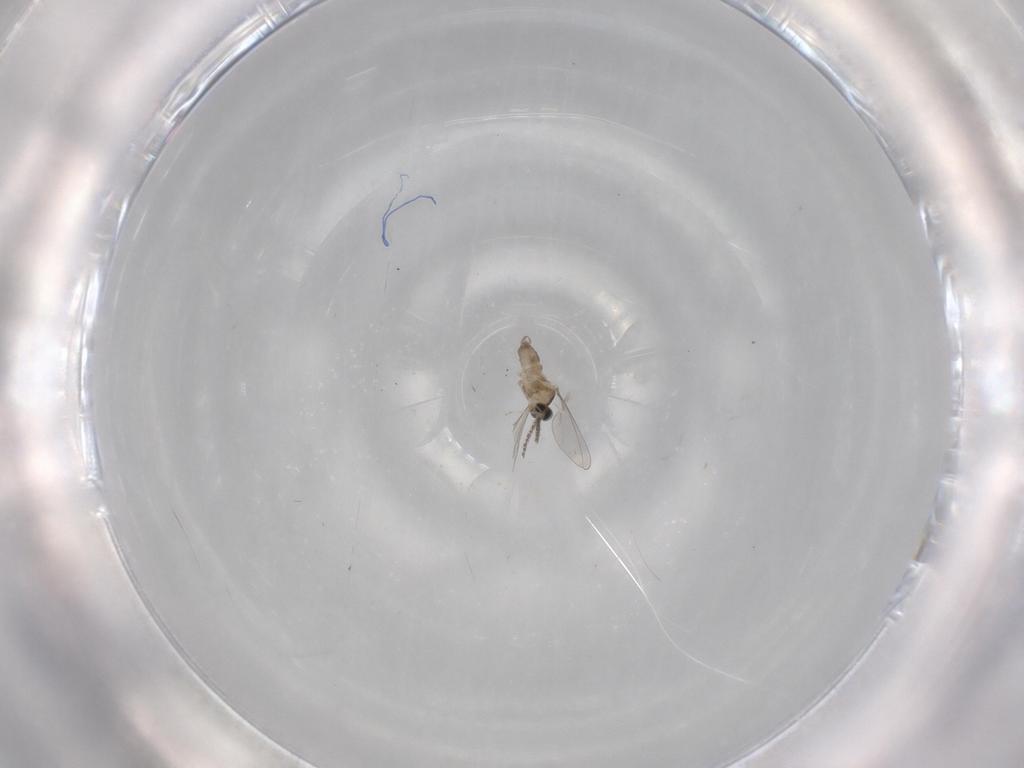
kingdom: Animalia
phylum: Arthropoda
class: Insecta
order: Diptera
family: Cecidomyiidae
